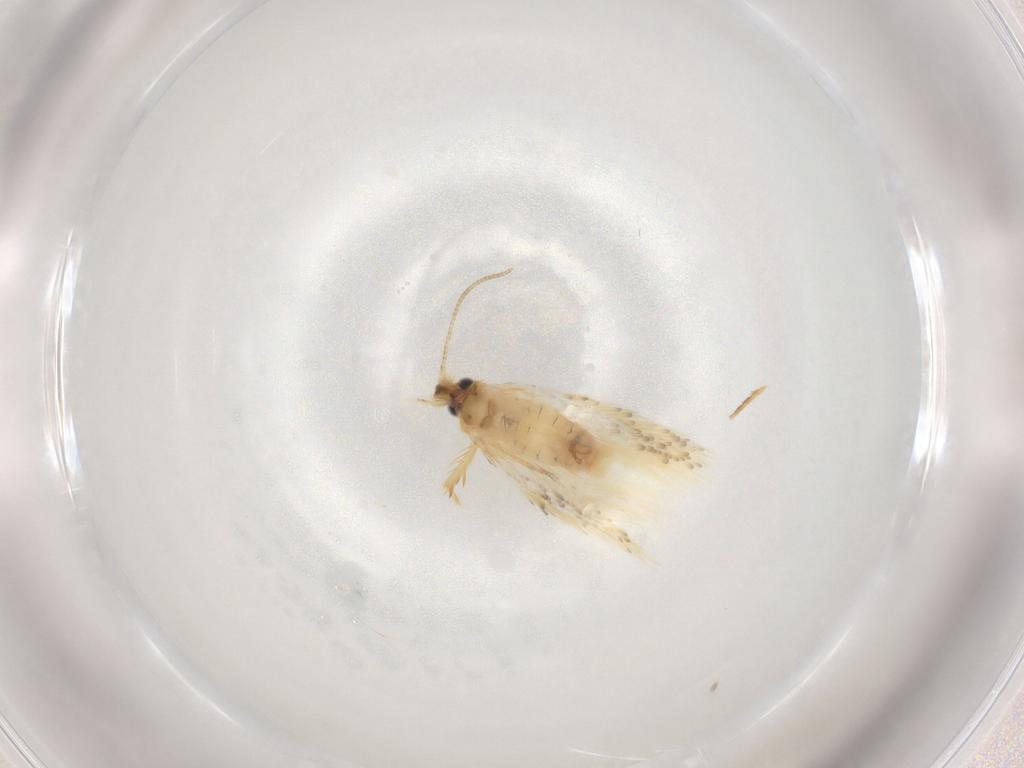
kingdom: Animalia
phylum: Arthropoda
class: Insecta
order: Lepidoptera
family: Nepticulidae
